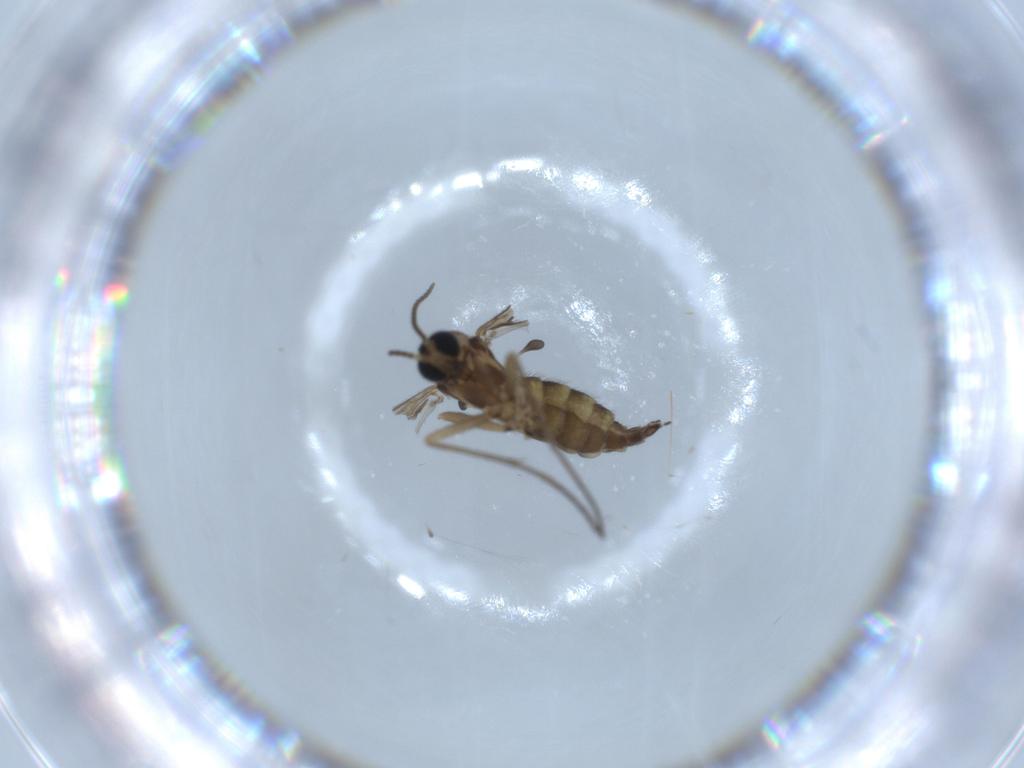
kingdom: Animalia
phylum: Arthropoda
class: Insecta
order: Diptera
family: Sciaridae
